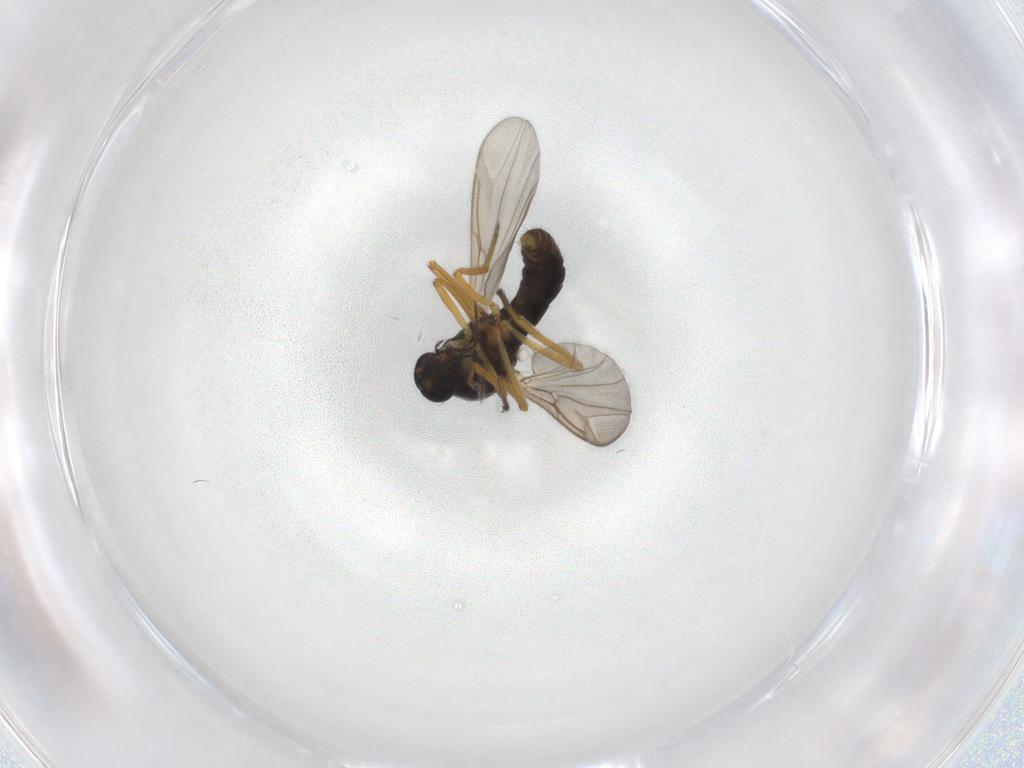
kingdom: Animalia
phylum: Arthropoda
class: Insecta
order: Diptera
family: Ceratopogonidae
